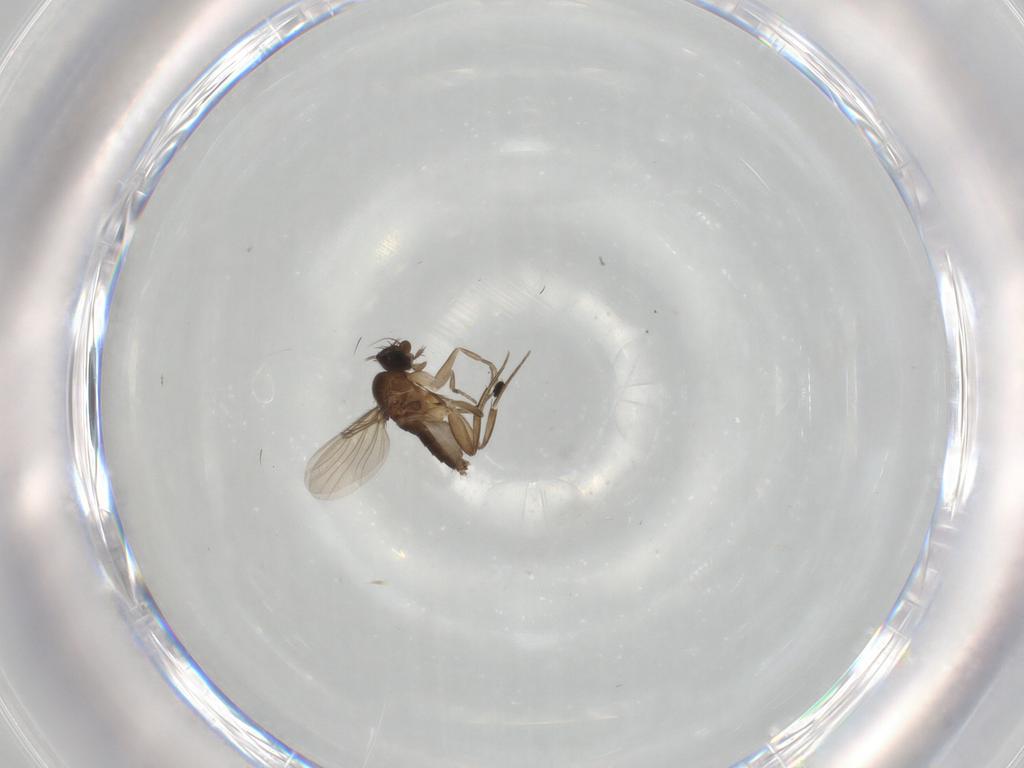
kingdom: Animalia
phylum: Arthropoda
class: Insecta
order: Diptera
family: Phoridae
